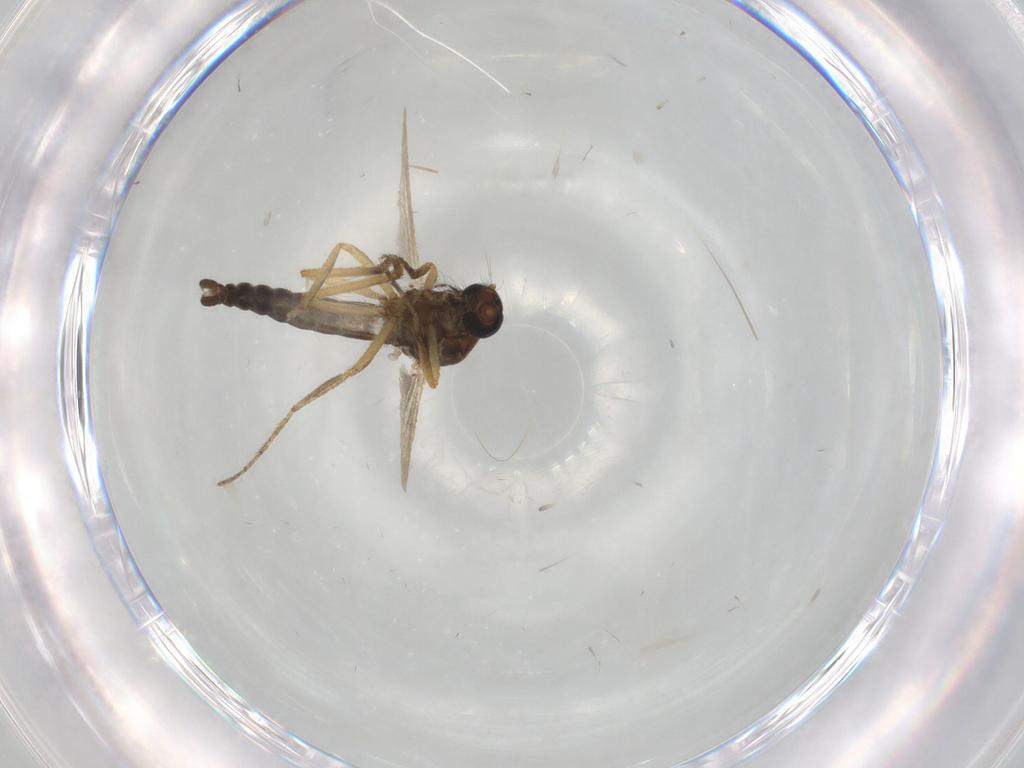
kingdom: Animalia
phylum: Arthropoda
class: Insecta
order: Diptera
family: Ceratopogonidae
